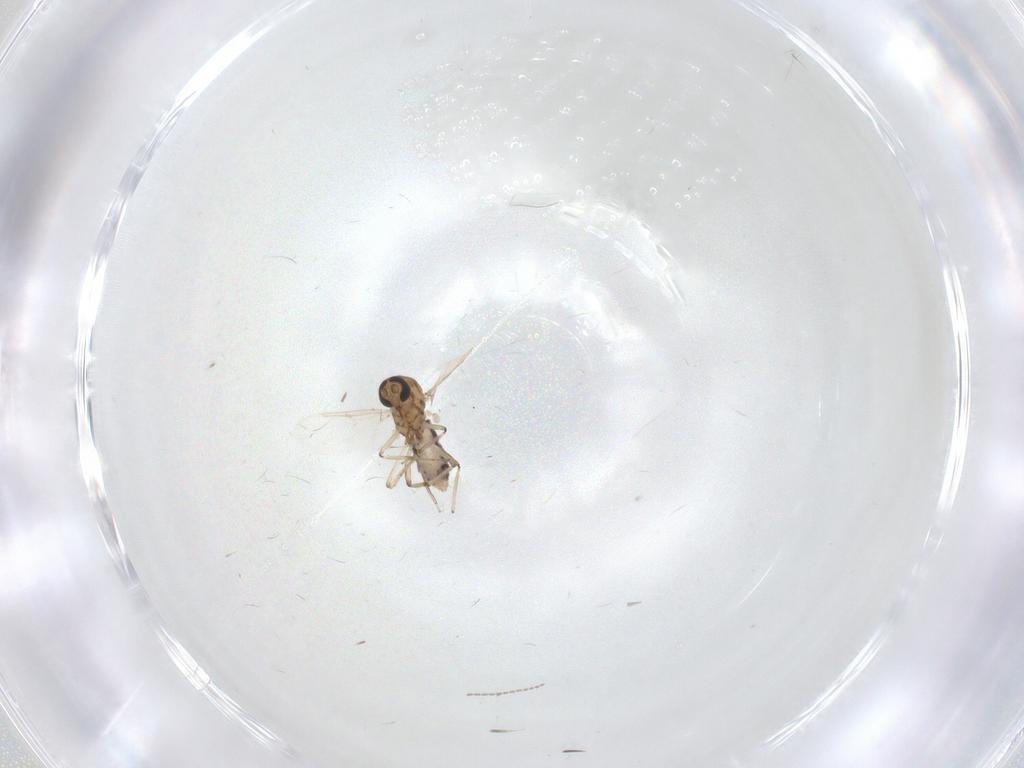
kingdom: Animalia
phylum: Arthropoda
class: Insecta
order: Diptera
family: Ceratopogonidae
